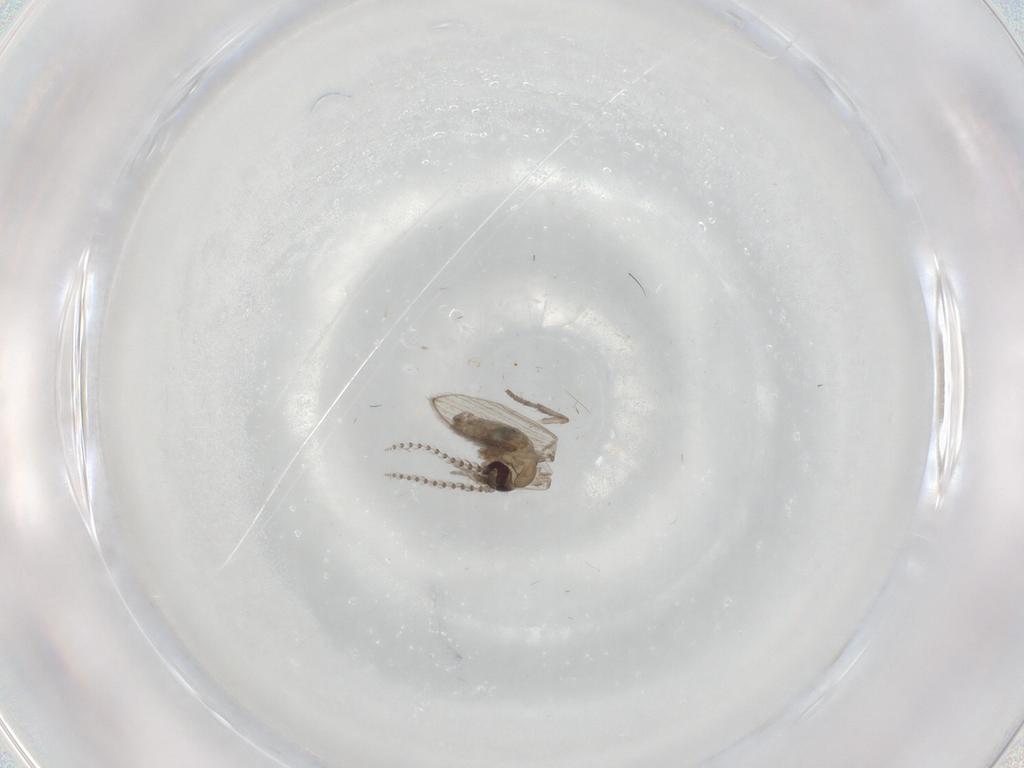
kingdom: Animalia
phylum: Arthropoda
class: Insecta
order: Diptera
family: Psychodidae
